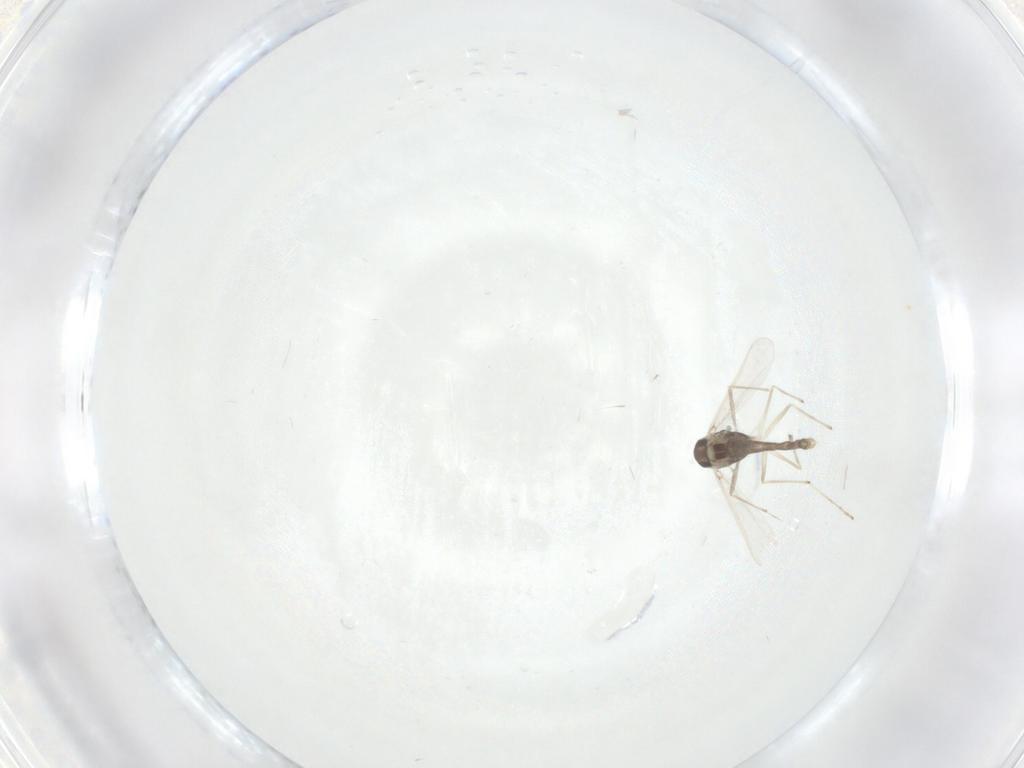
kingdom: Animalia
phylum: Arthropoda
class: Insecta
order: Diptera
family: Chironomidae
